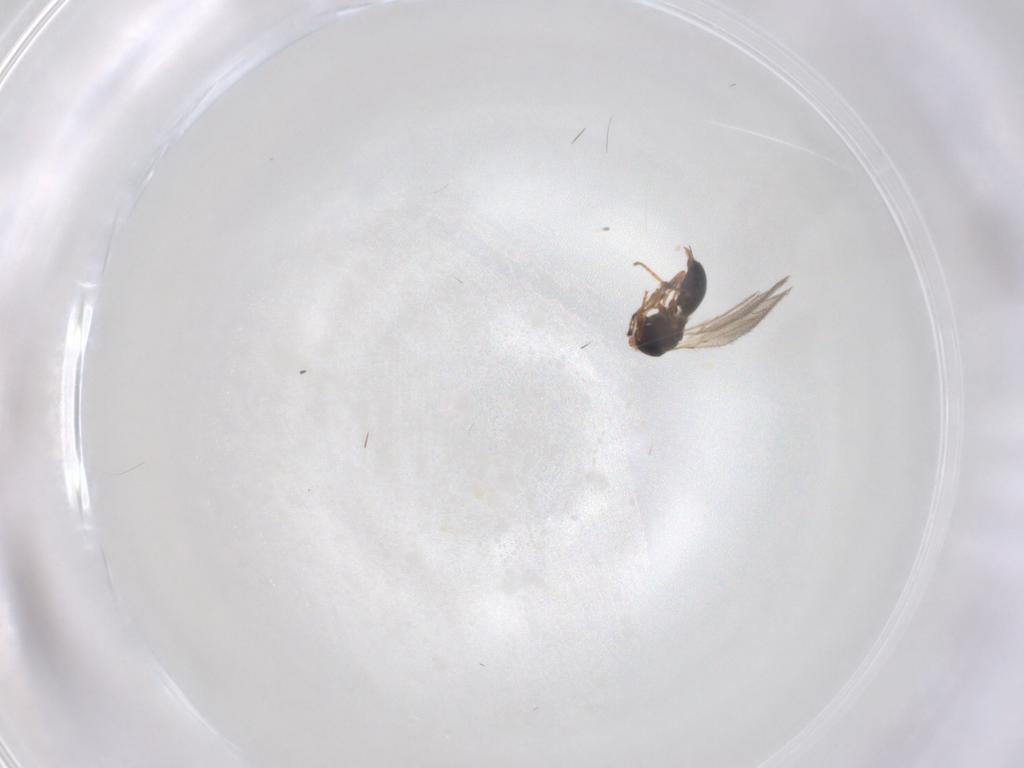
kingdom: Animalia
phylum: Arthropoda
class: Insecta
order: Hymenoptera
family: Diapriidae
